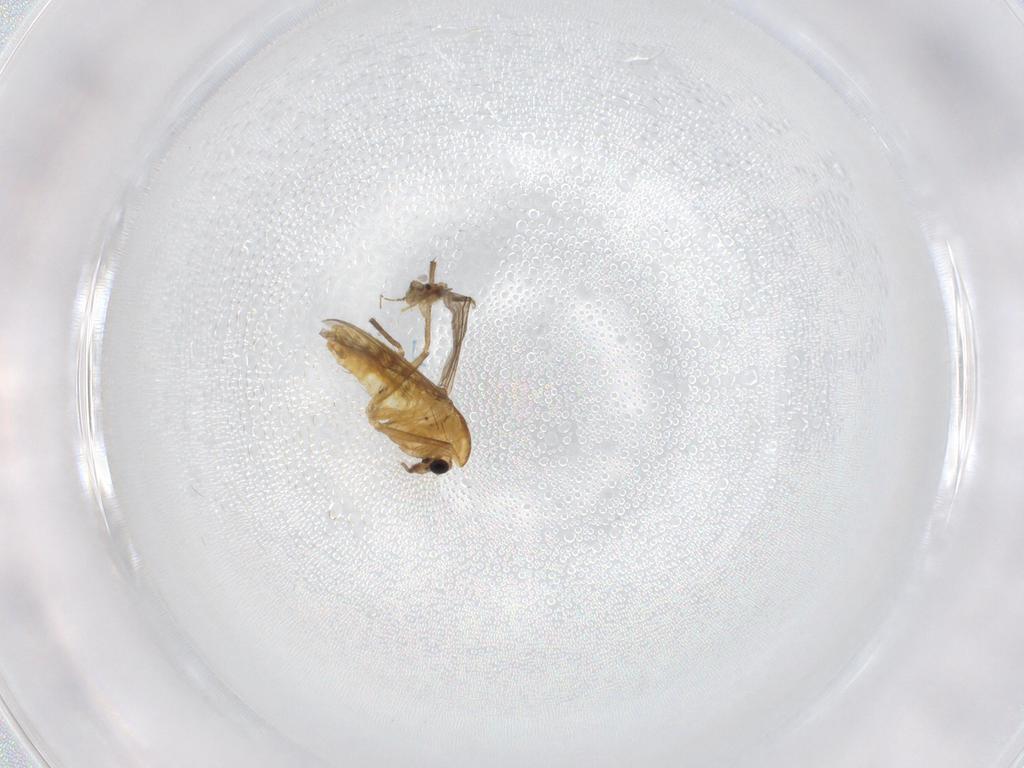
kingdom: Animalia
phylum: Arthropoda
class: Insecta
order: Diptera
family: Chironomidae
